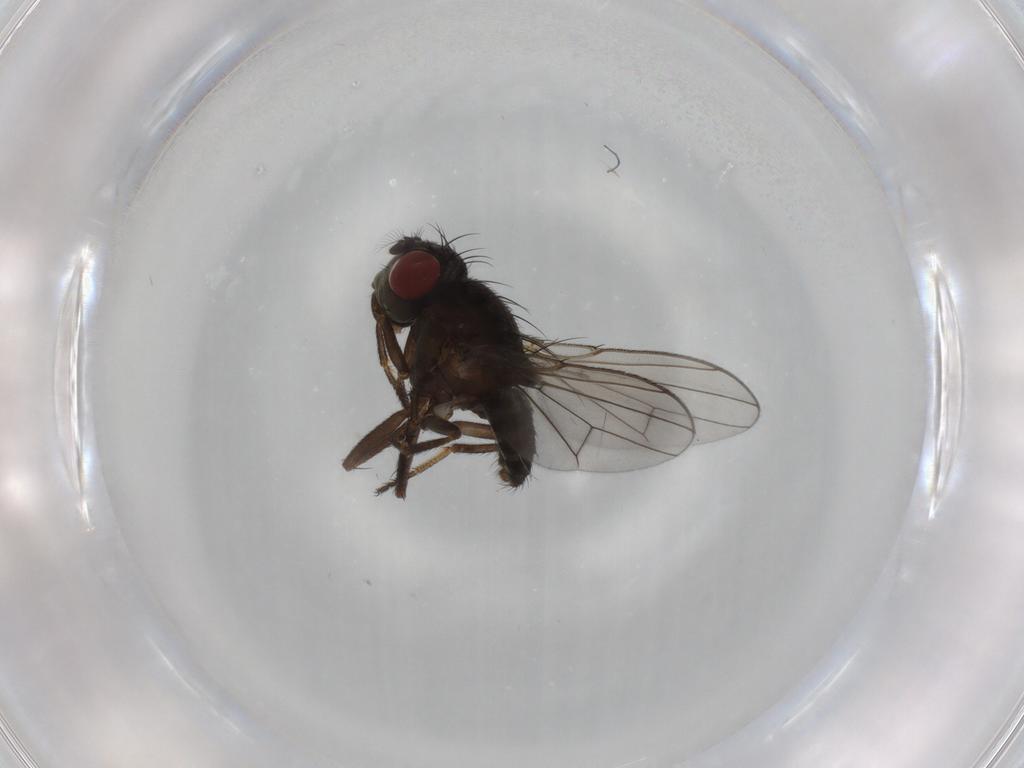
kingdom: Animalia
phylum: Arthropoda
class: Insecta
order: Diptera
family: Ephydridae
